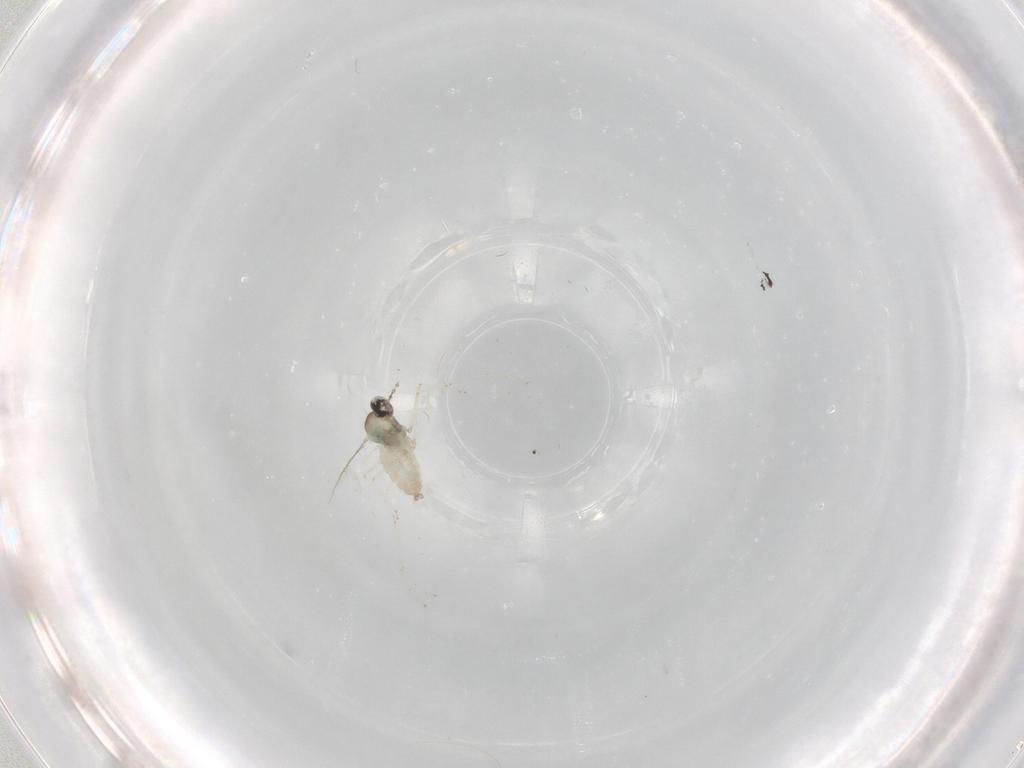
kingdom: Animalia
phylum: Arthropoda
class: Insecta
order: Diptera
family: Cecidomyiidae
